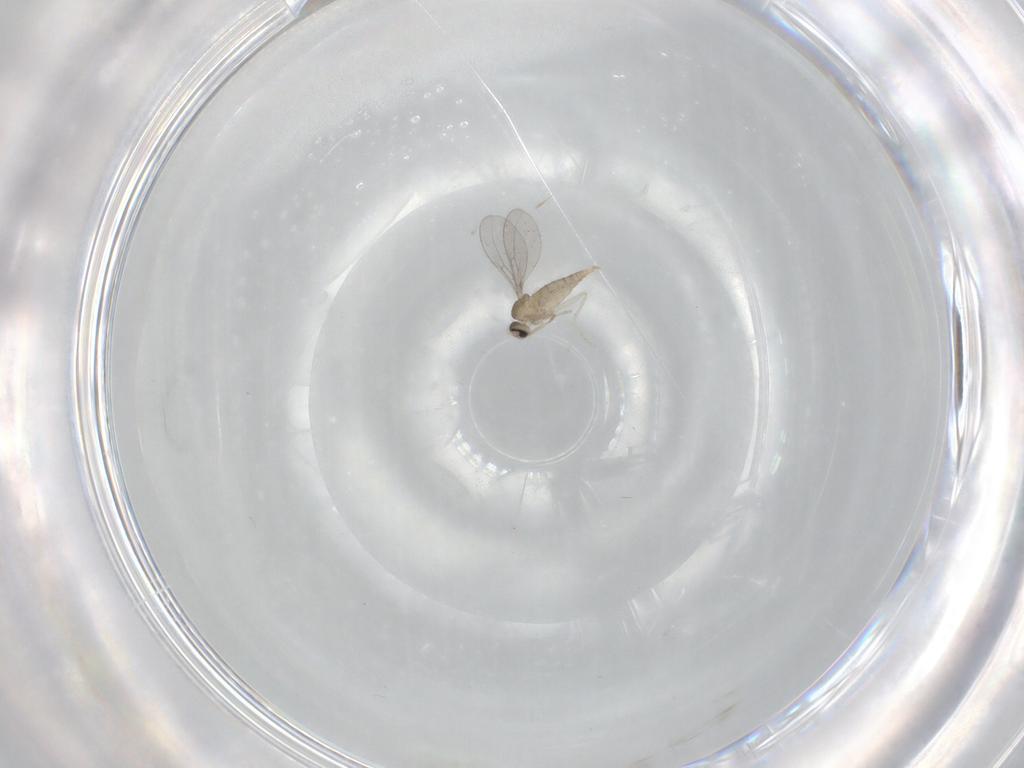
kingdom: Animalia
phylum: Arthropoda
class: Insecta
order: Diptera
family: Cecidomyiidae
